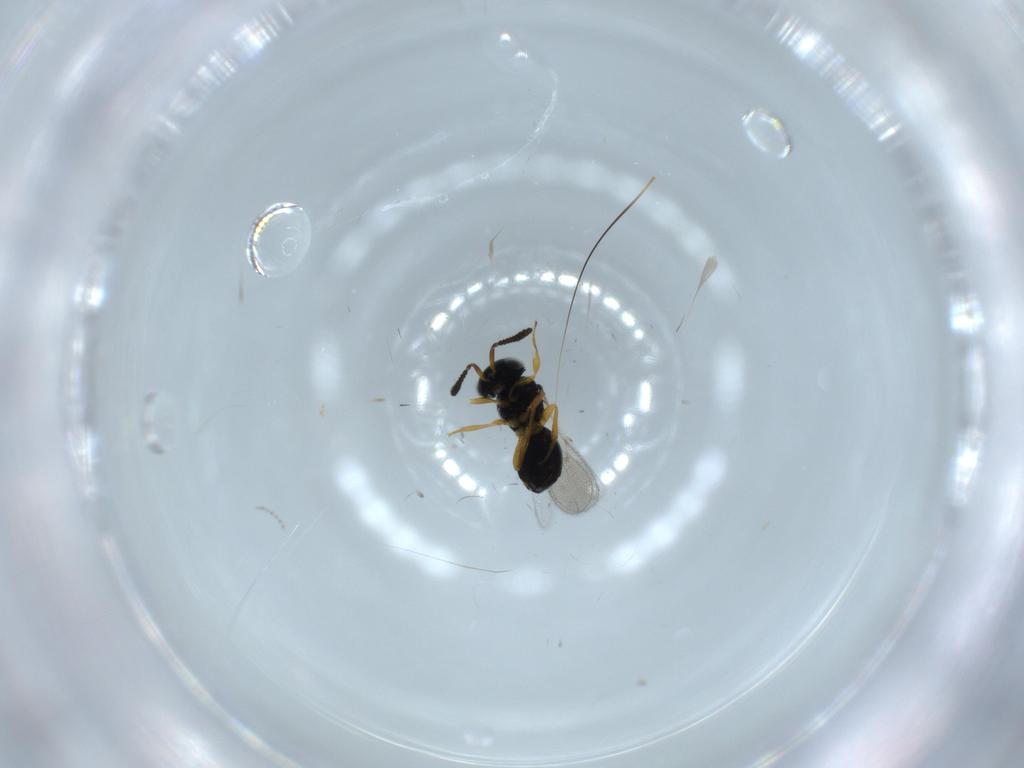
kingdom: Animalia
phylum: Arthropoda
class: Insecta
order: Hymenoptera
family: Scelionidae
